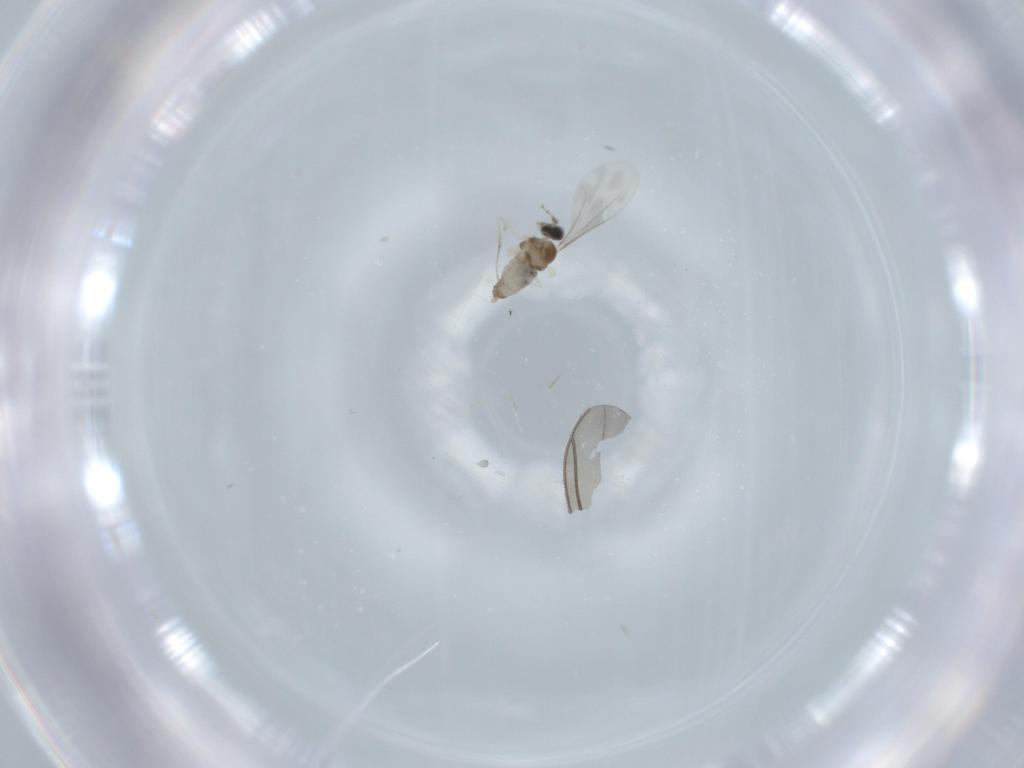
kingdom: Animalia
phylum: Arthropoda
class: Insecta
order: Diptera
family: Cecidomyiidae
